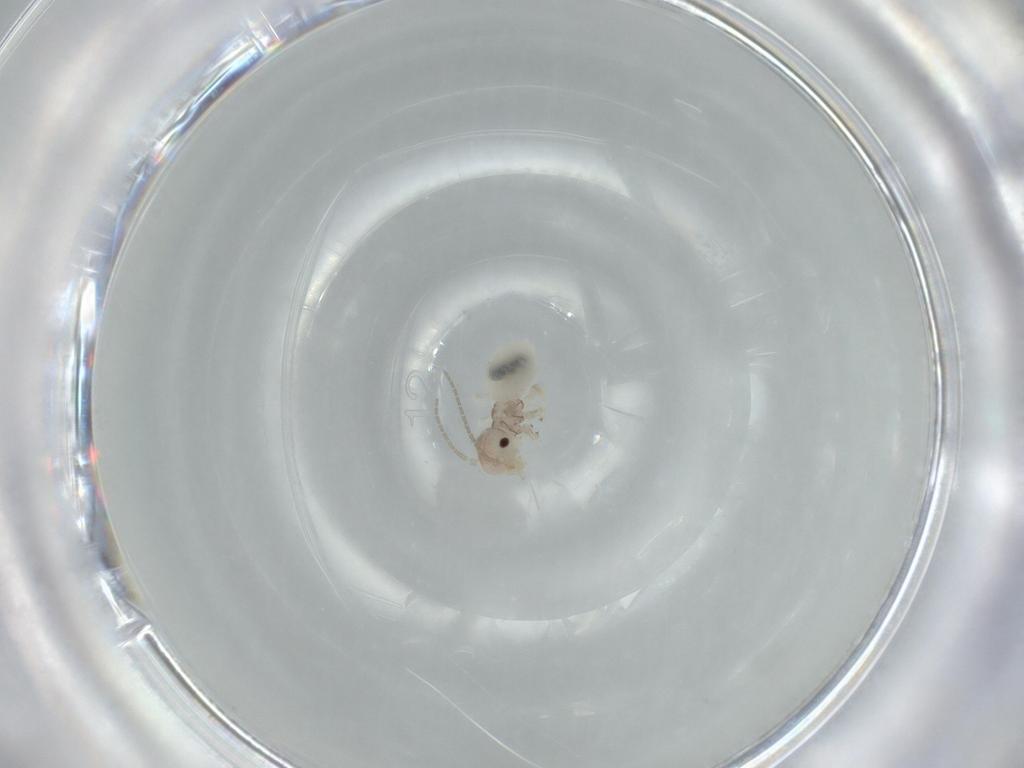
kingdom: Animalia
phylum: Arthropoda
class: Insecta
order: Psocodea
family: Amphipsocidae
